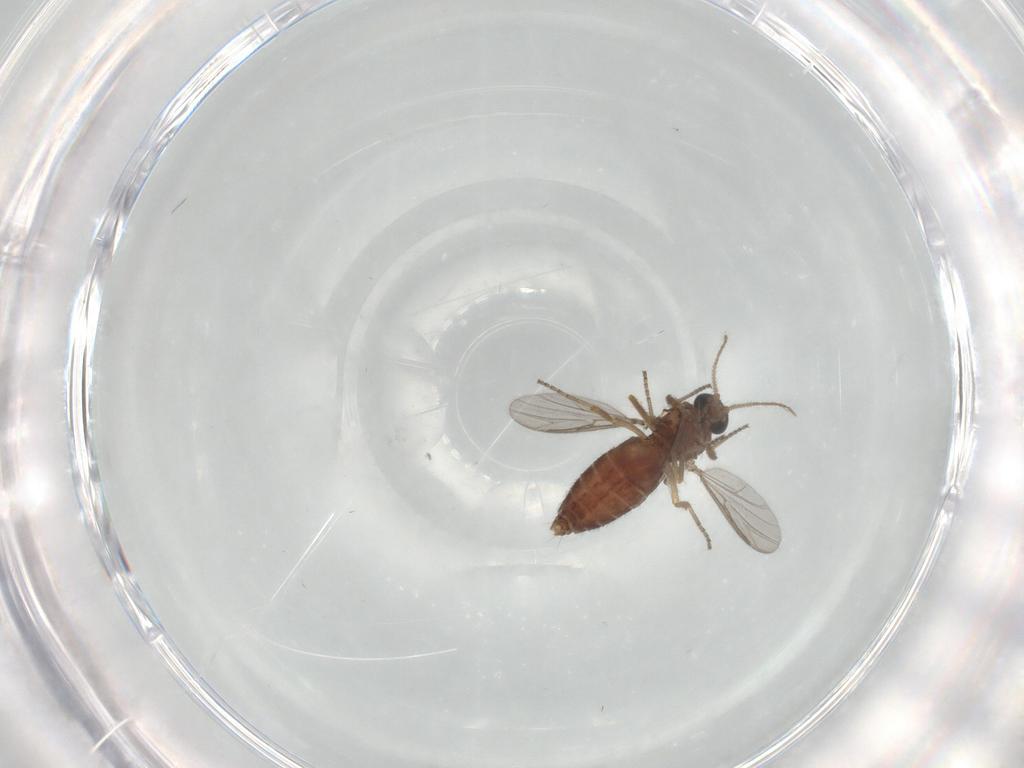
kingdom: Animalia
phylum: Arthropoda
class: Insecta
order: Diptera
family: Ceratopogonidae
